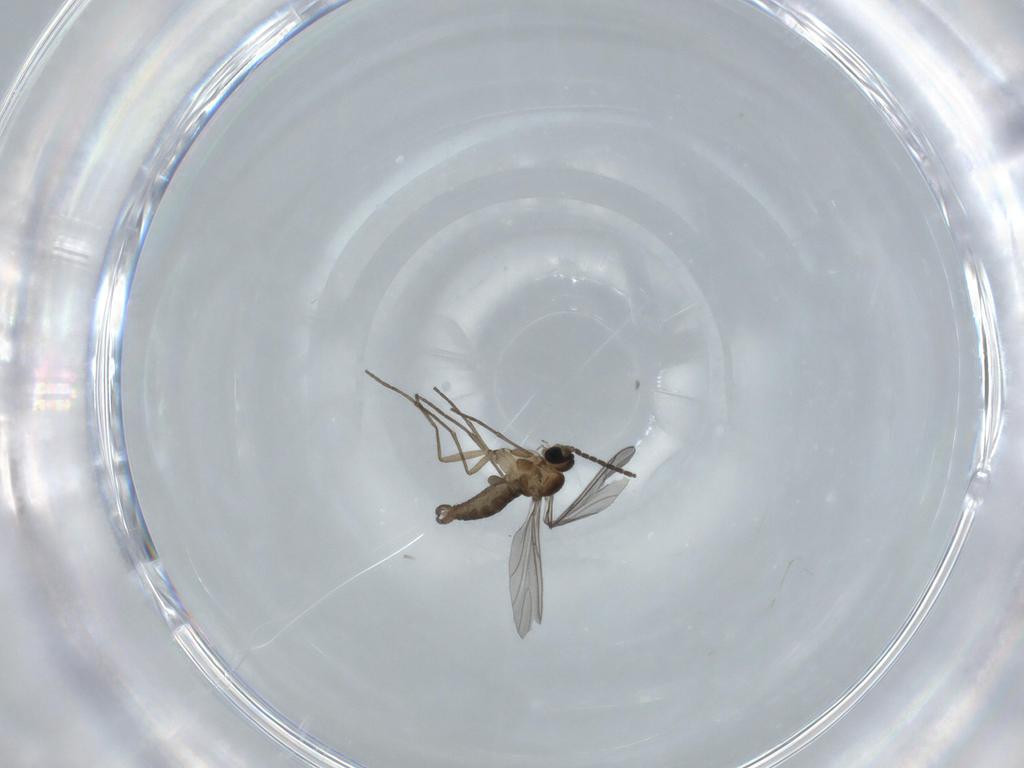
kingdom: Animalia
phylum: Arthropoda
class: Insecta
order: Diptera
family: Sciaridae
